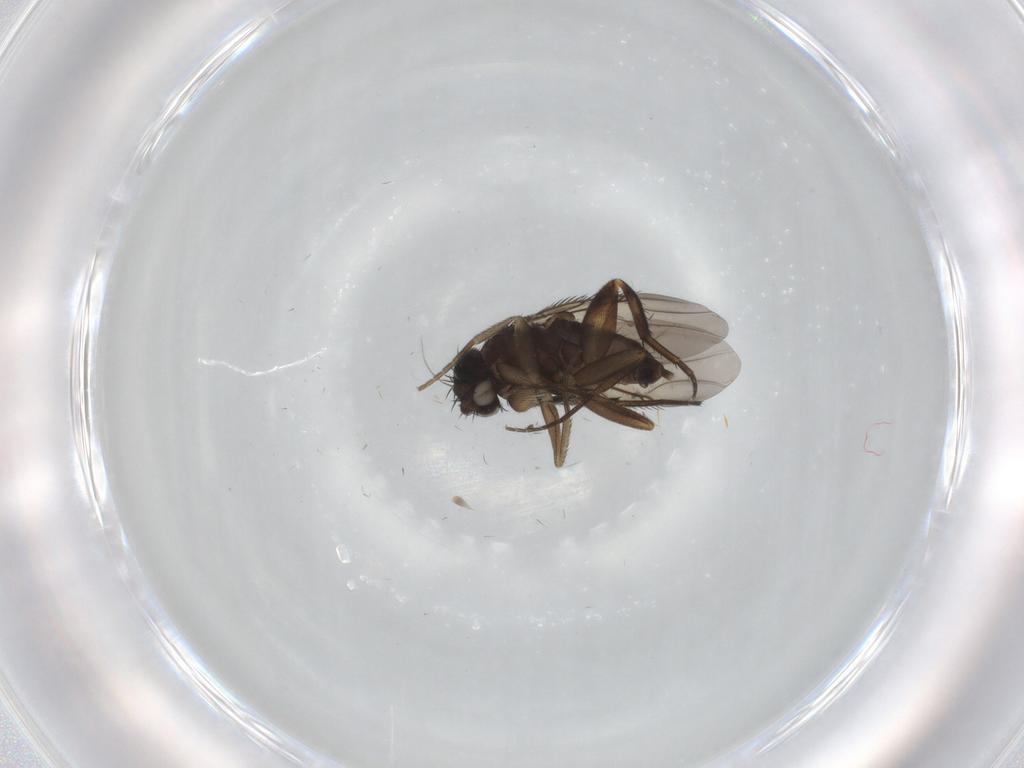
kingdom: Animalia
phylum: Arthropoda
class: Insecta
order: Diptera
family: Phoridae
